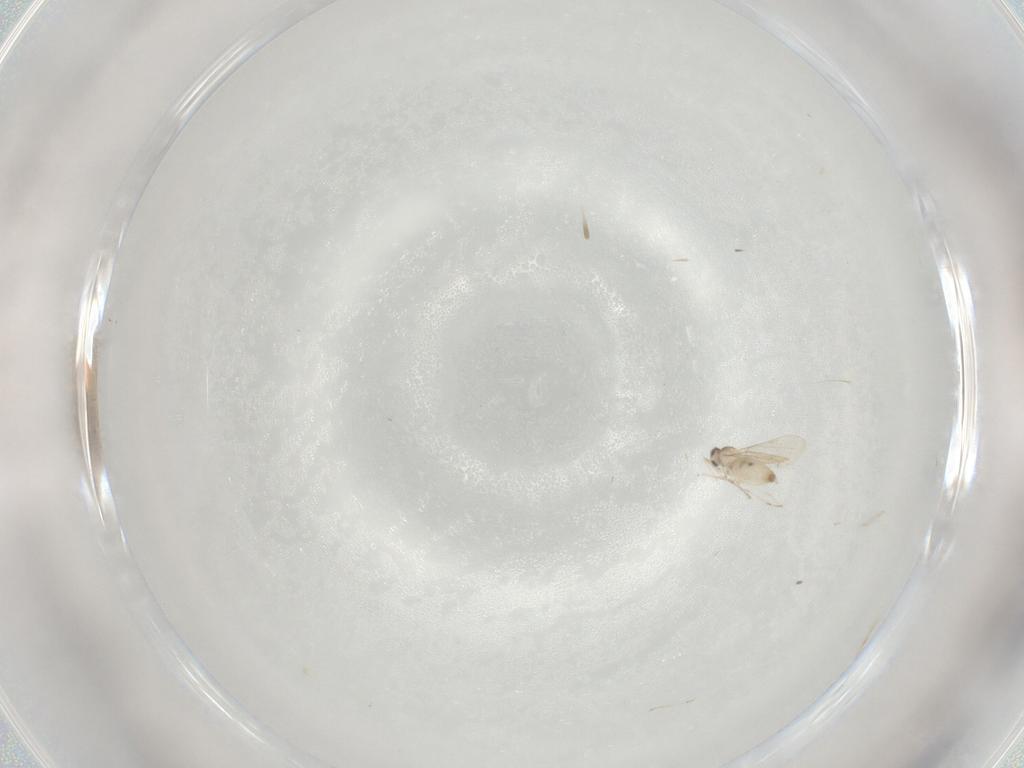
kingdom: Animalia
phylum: Arthropoda
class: Insecta
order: Diptera
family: Cecidomyiidae
